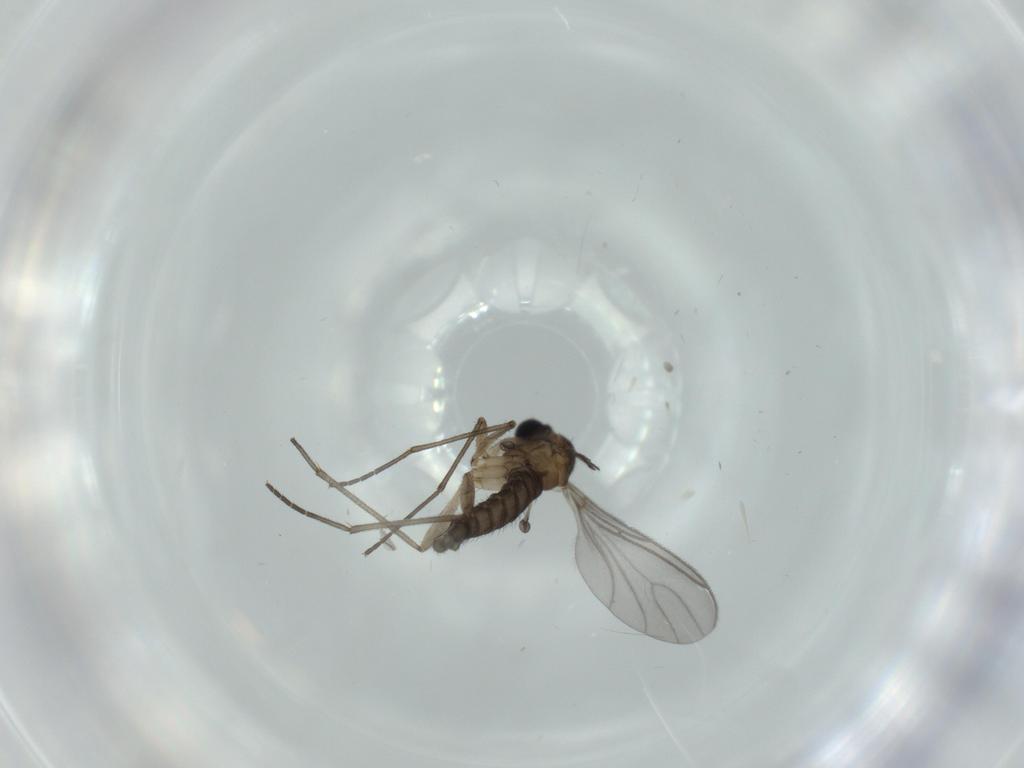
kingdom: Animalia
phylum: Arthropoda
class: Insecta
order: Diptera
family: Sciaridae
